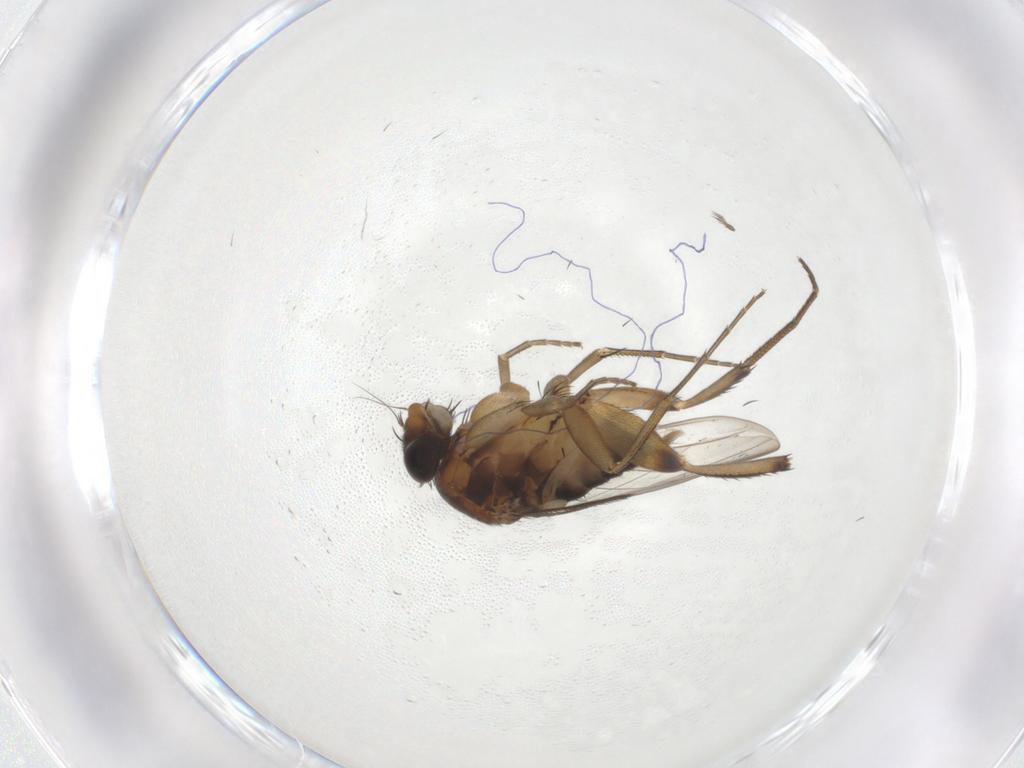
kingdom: Animalia
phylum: Arthropoda
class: Insecta
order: Diptera
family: Phoridae
